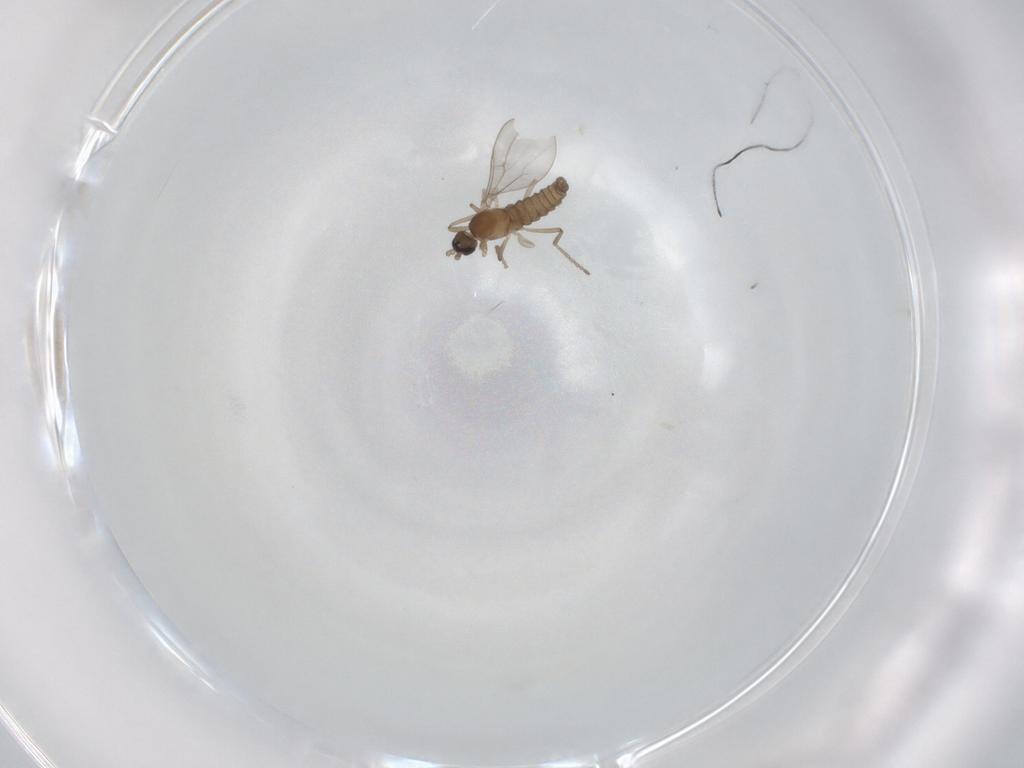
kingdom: Animalia
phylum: Arthropoda
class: Insecta
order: Diptera
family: Cecidomyiidae
